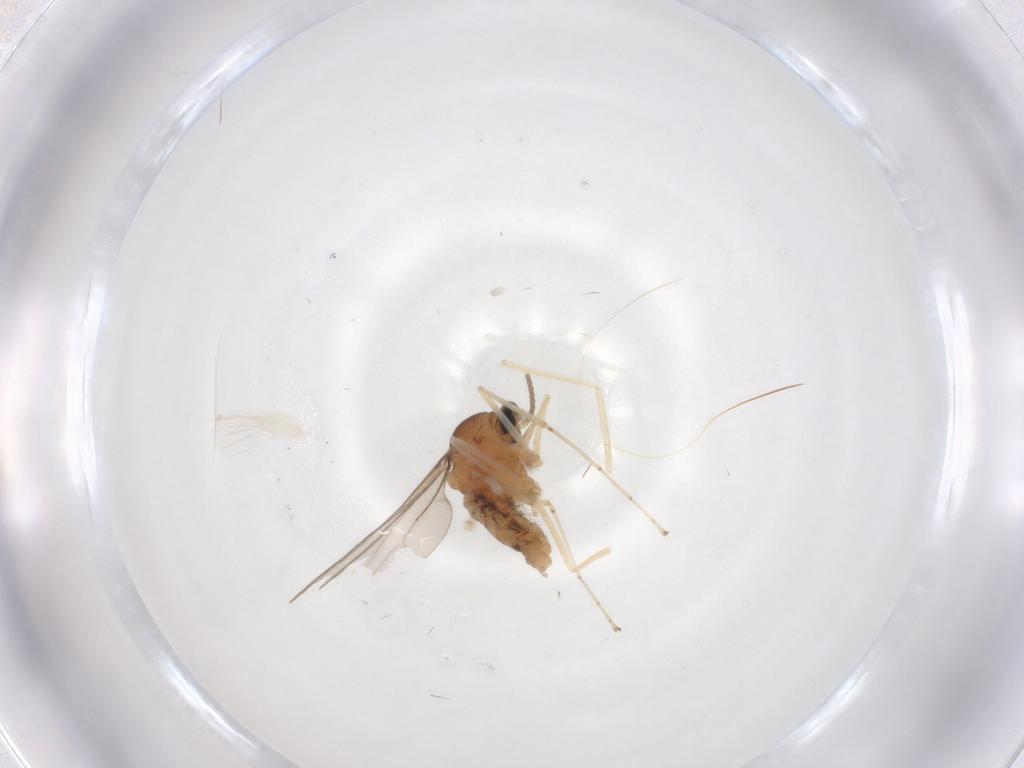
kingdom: Animalia
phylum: Arthropoda
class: Insecta
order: Diptera
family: Cecidomyiidae
